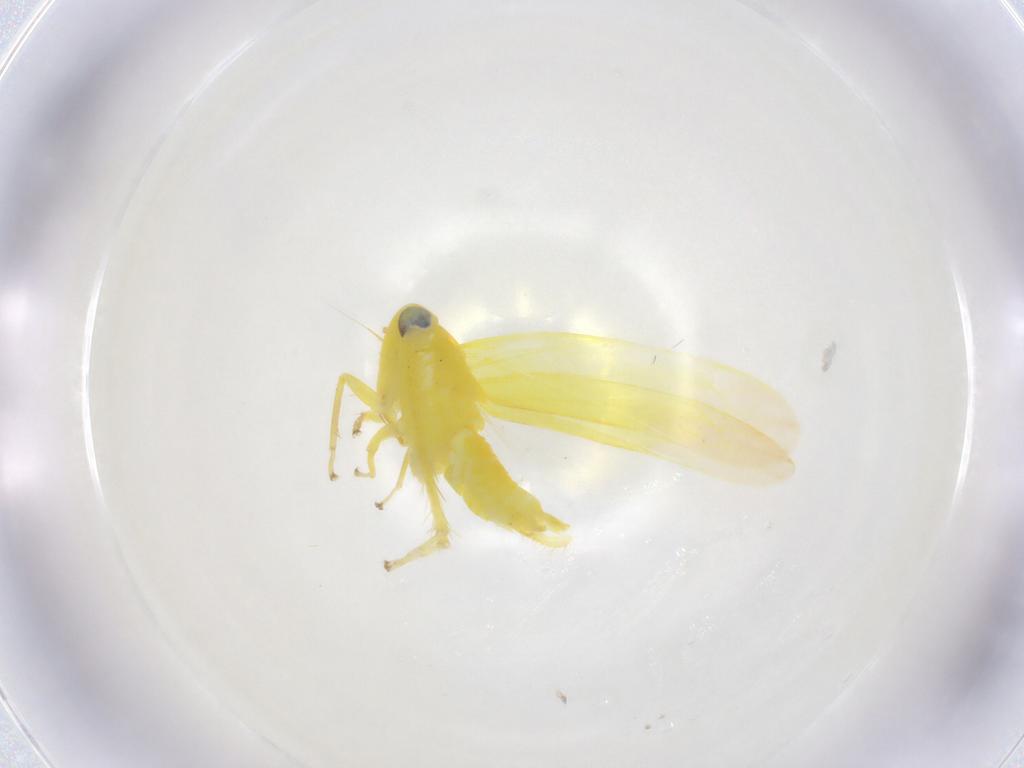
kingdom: Animalia
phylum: Arthropoda
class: Insecta
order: Hemiptera
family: Cicadellidae
